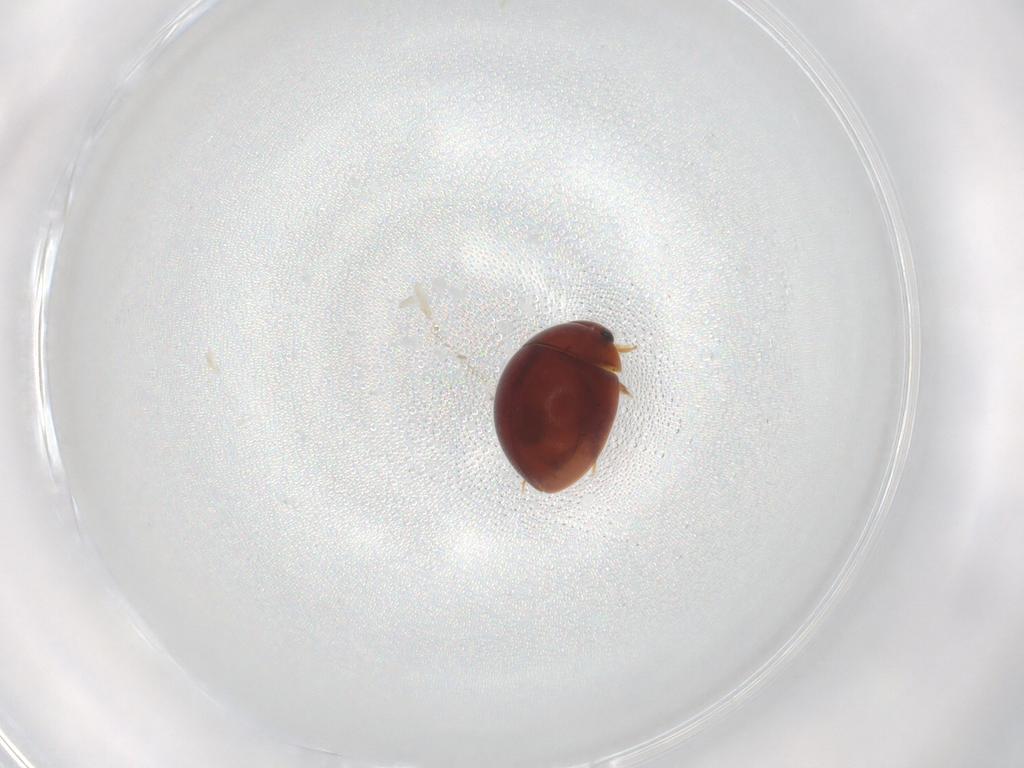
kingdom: Animalia
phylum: Arthropoda
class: Insecta
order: Coleoptera
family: Hydrophilidae
